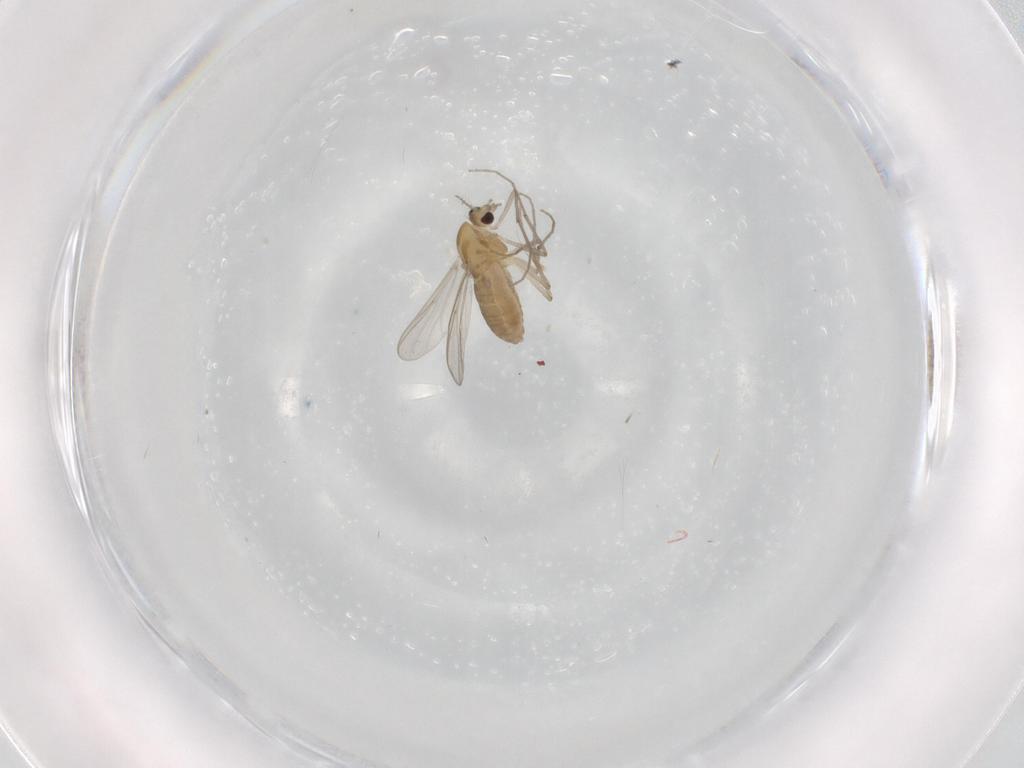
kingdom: Animalia
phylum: Arthropoda
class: Insecta
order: Diptera
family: Chironomidae
